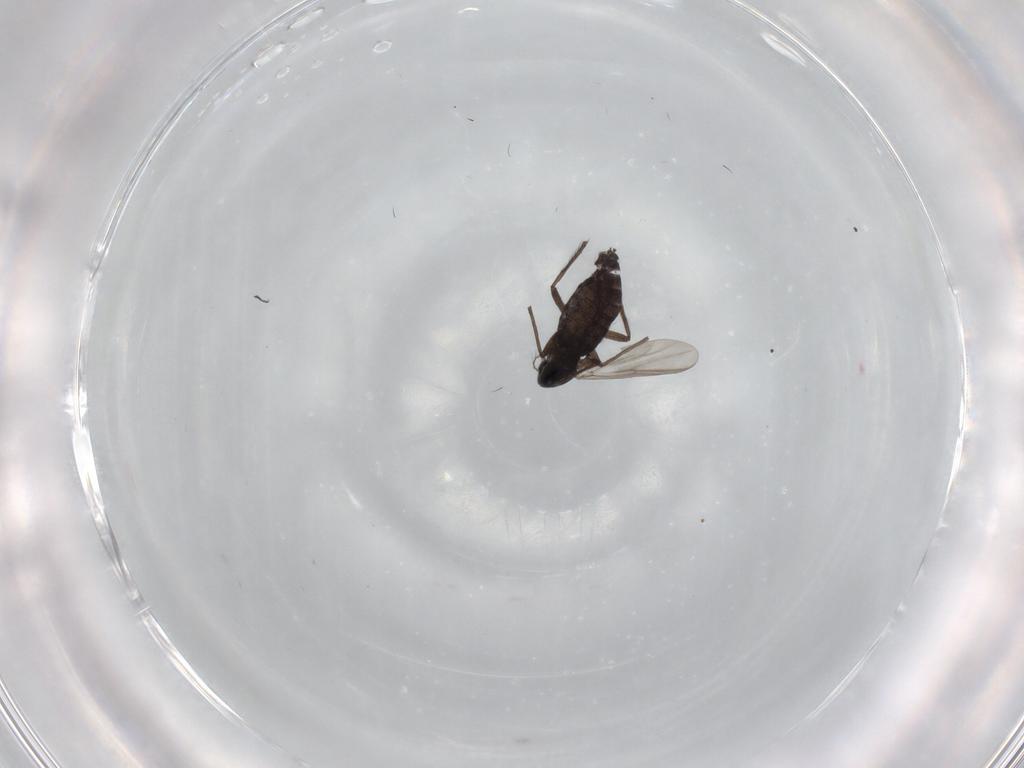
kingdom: Animalia
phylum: Arthropoda
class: Insecta
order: Diptera
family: Chironomidae
